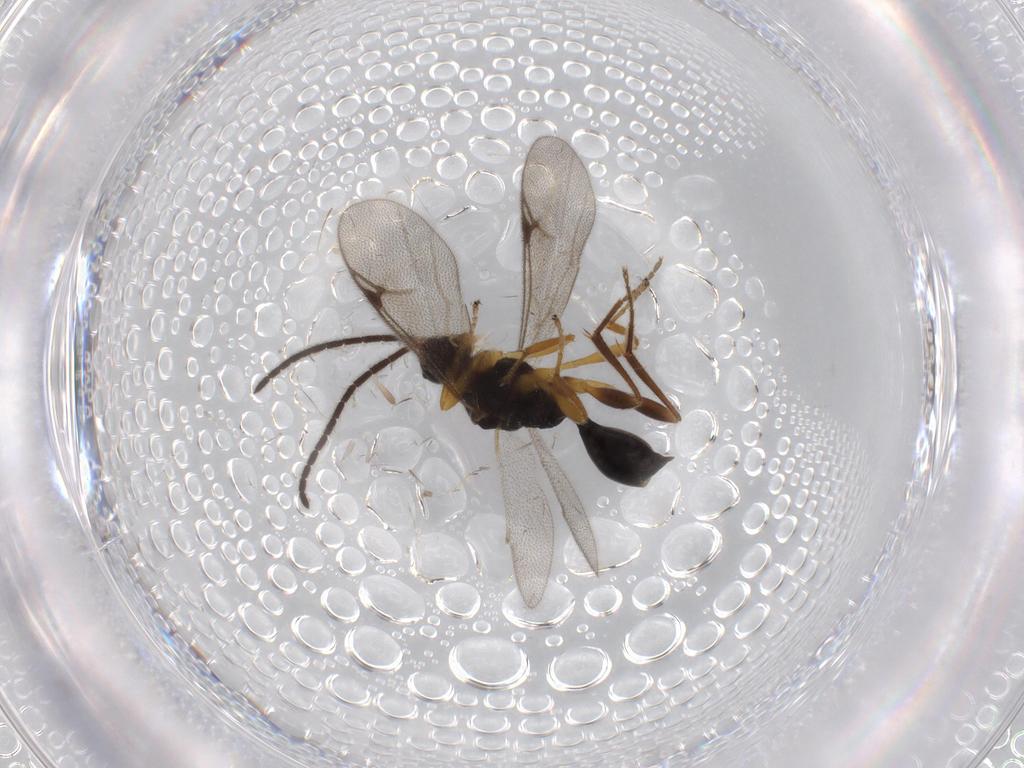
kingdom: Animalia
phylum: Arthropoda
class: Insecta
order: Hymenoptera
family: Proctotrupidae
